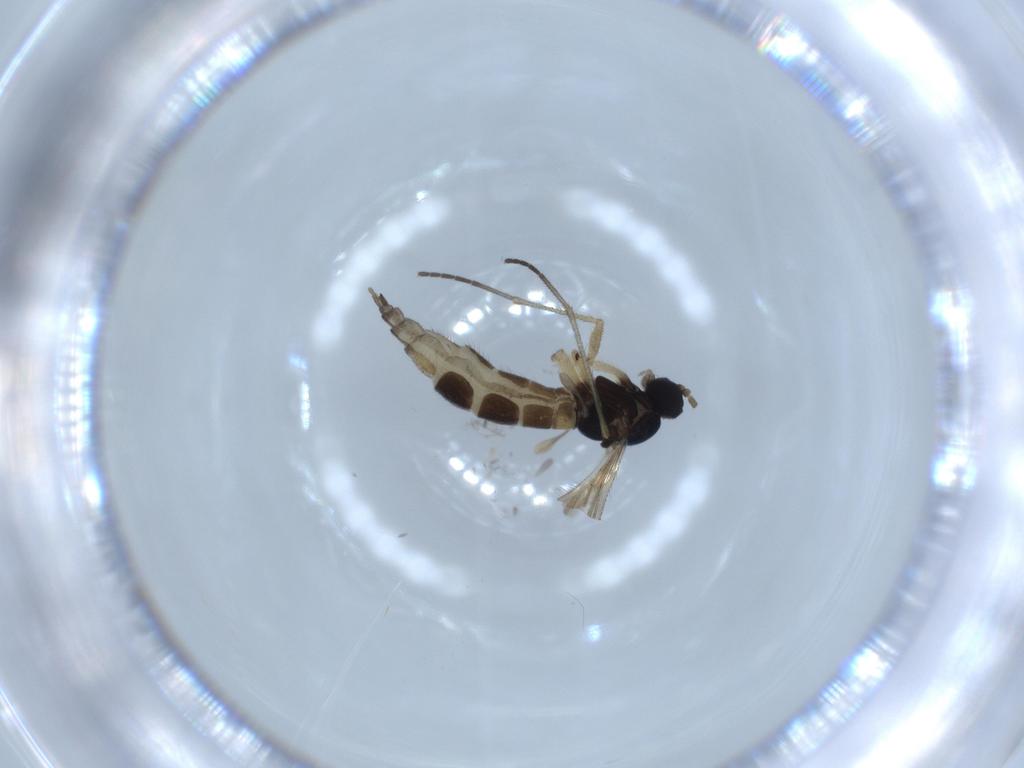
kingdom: Animalia
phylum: Arthropoda
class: Insecta
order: Diptera
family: Sciaridae
